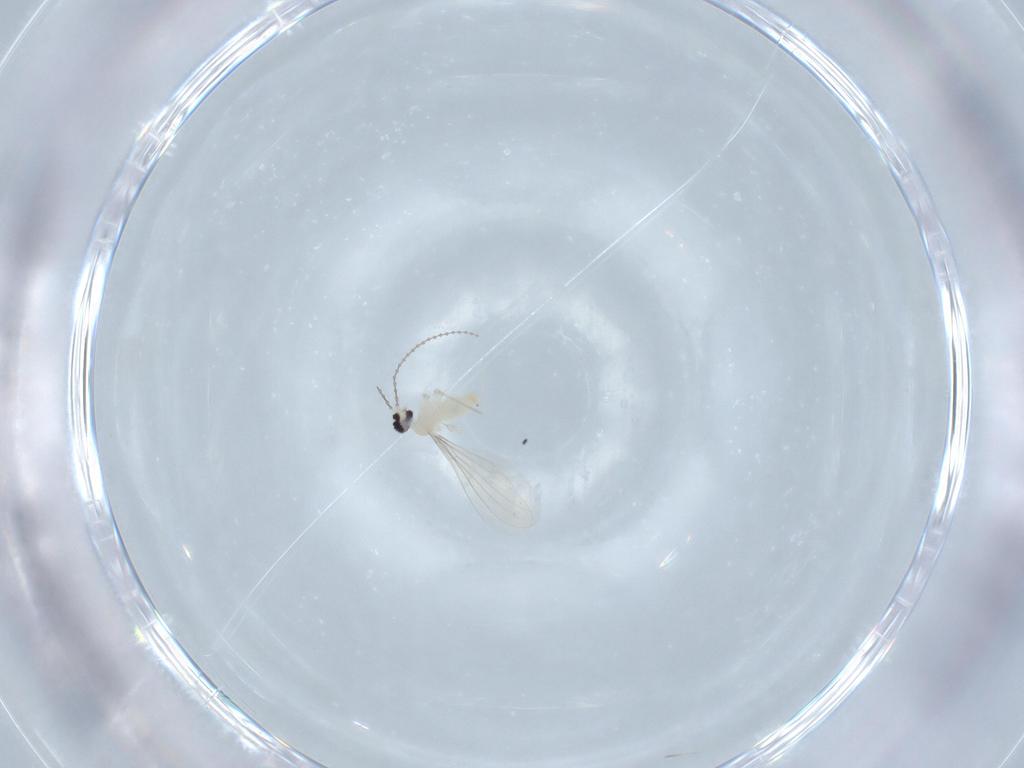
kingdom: Animalia
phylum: Arthropoda
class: Insecta
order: Diptera
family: Cecidomyiidae
